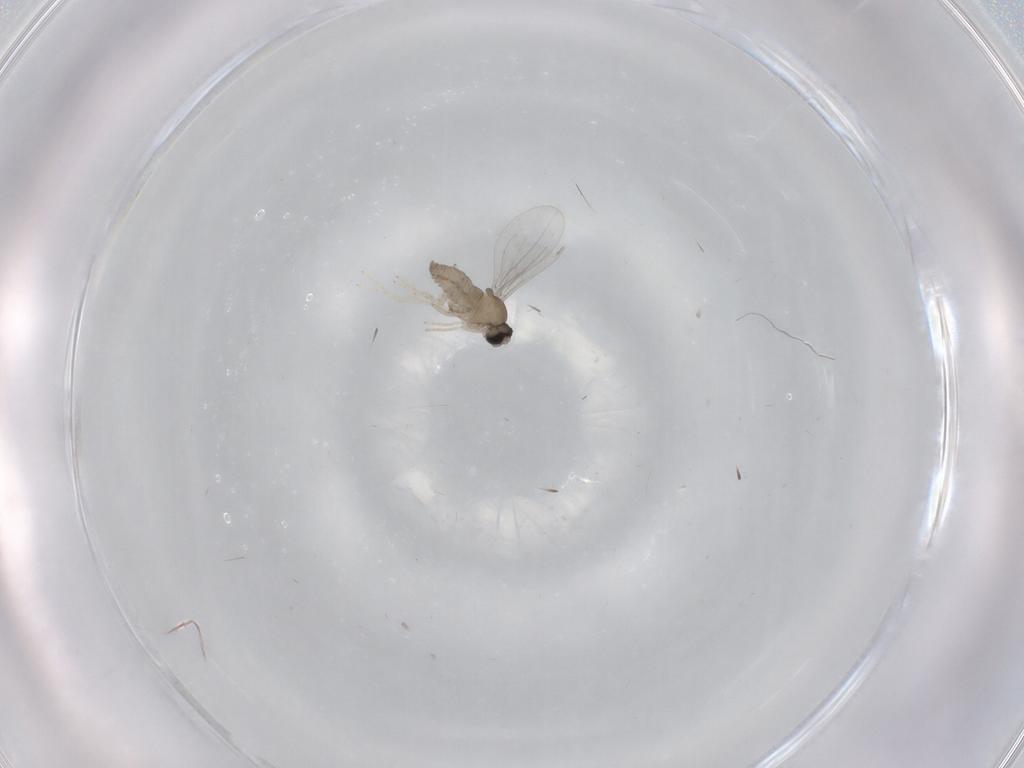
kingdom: Animalia
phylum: Arthropoda
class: Insecta
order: Diptera
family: Cecidomyiidae
